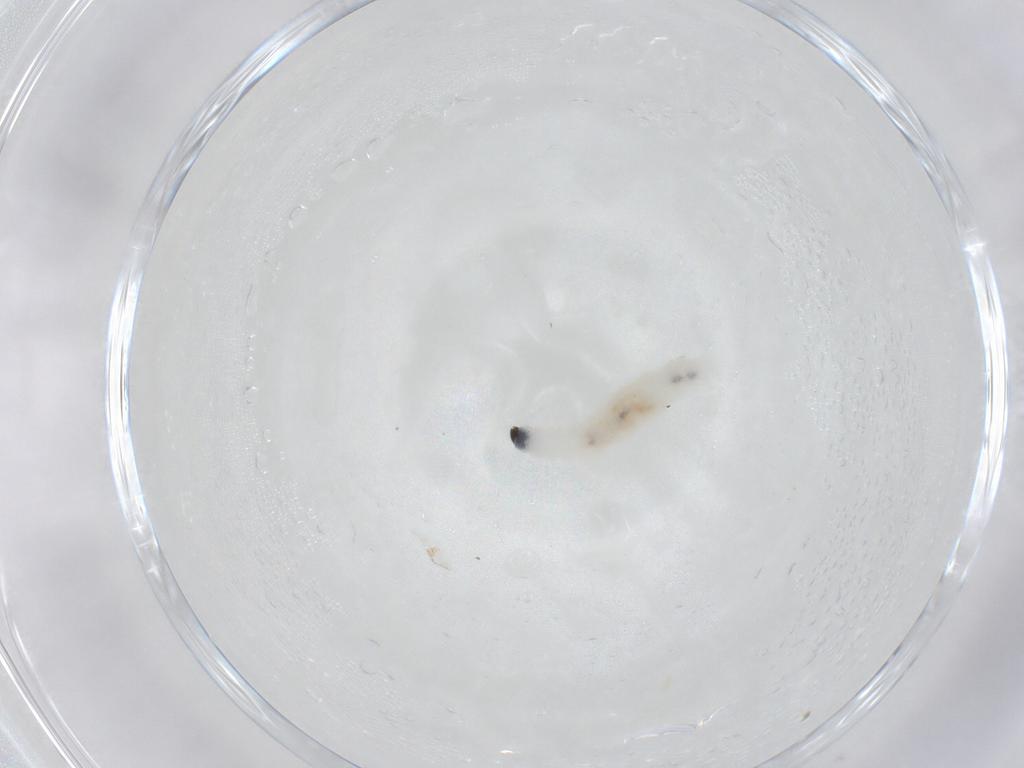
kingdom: Animalia
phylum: Arthropoda
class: Insecta
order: Diptera
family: Sciaridae
